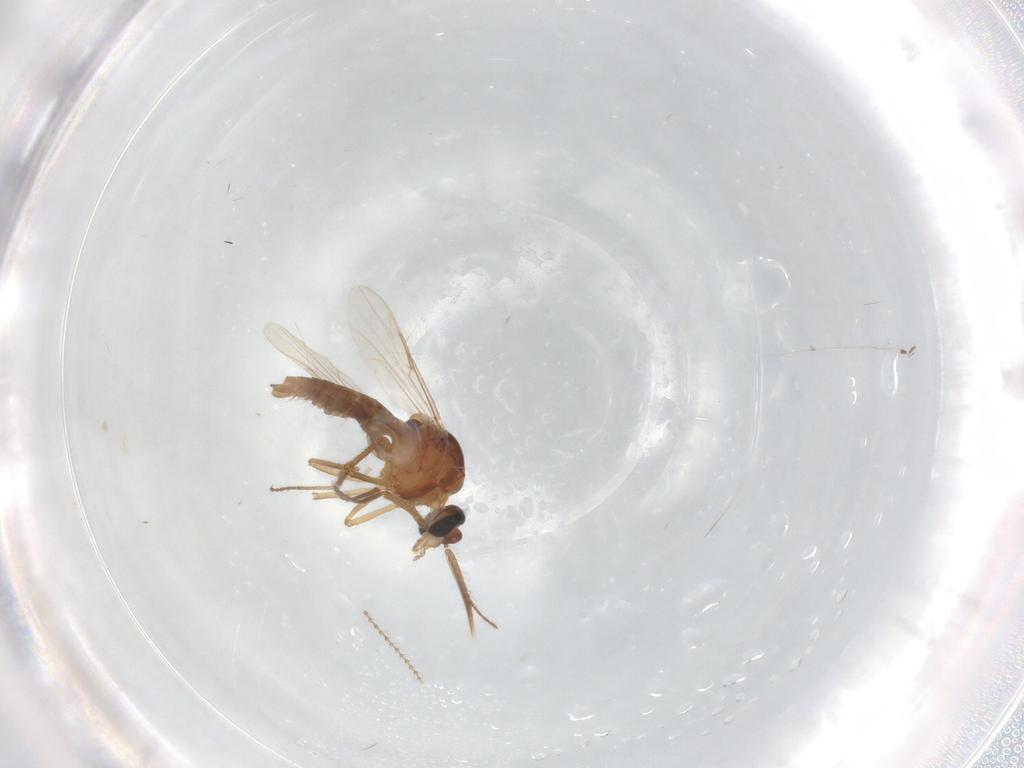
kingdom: Animalia
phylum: Arthropoda
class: Insecta
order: Diptera
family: Ceratopogonidae
